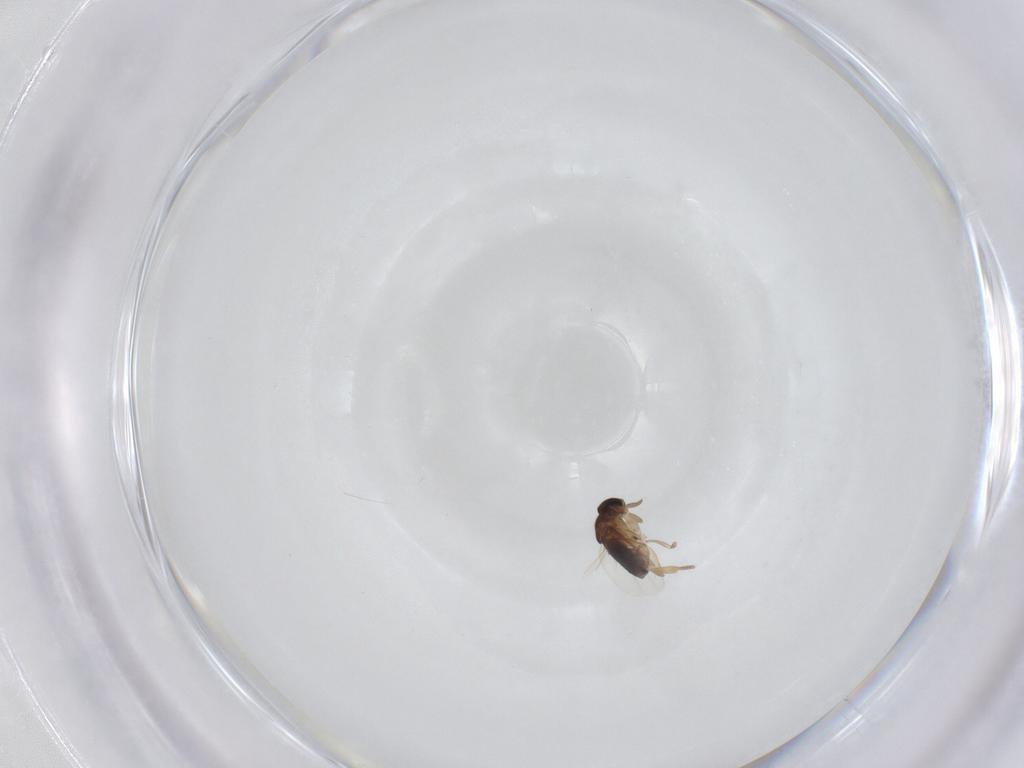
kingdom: Animalia
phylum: Arthropoda
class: Insecta
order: Diptera
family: Phoridae
